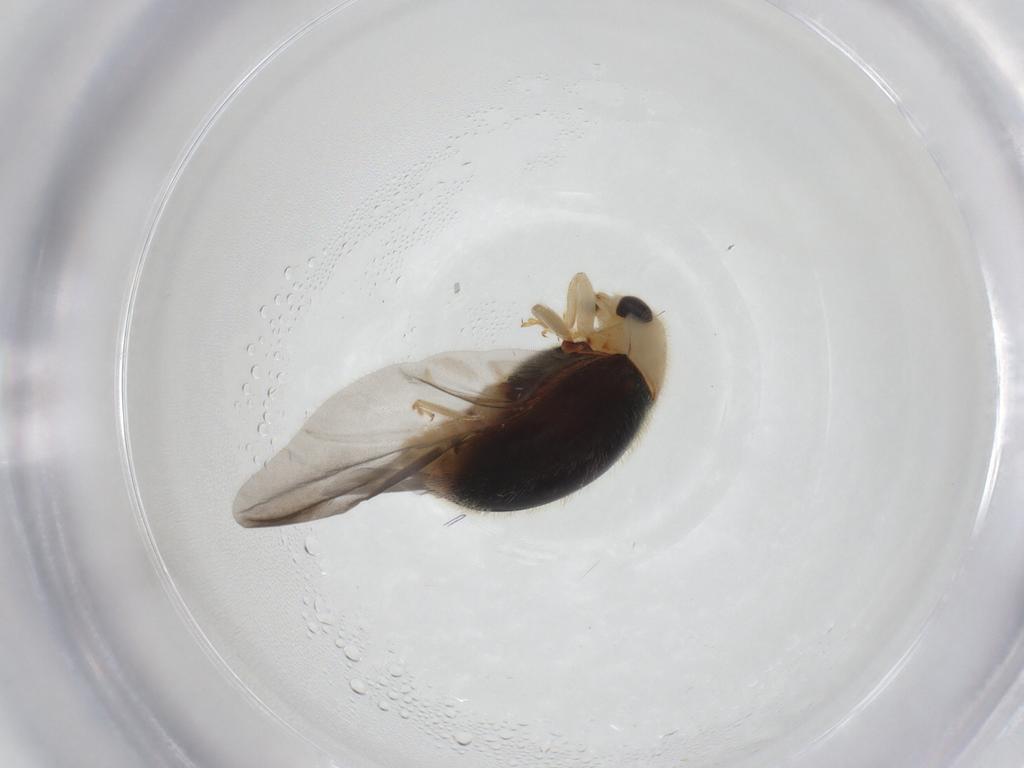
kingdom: Animalia
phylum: Arthropoda
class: Insecta
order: Coleoptera
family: Coccinellidae
